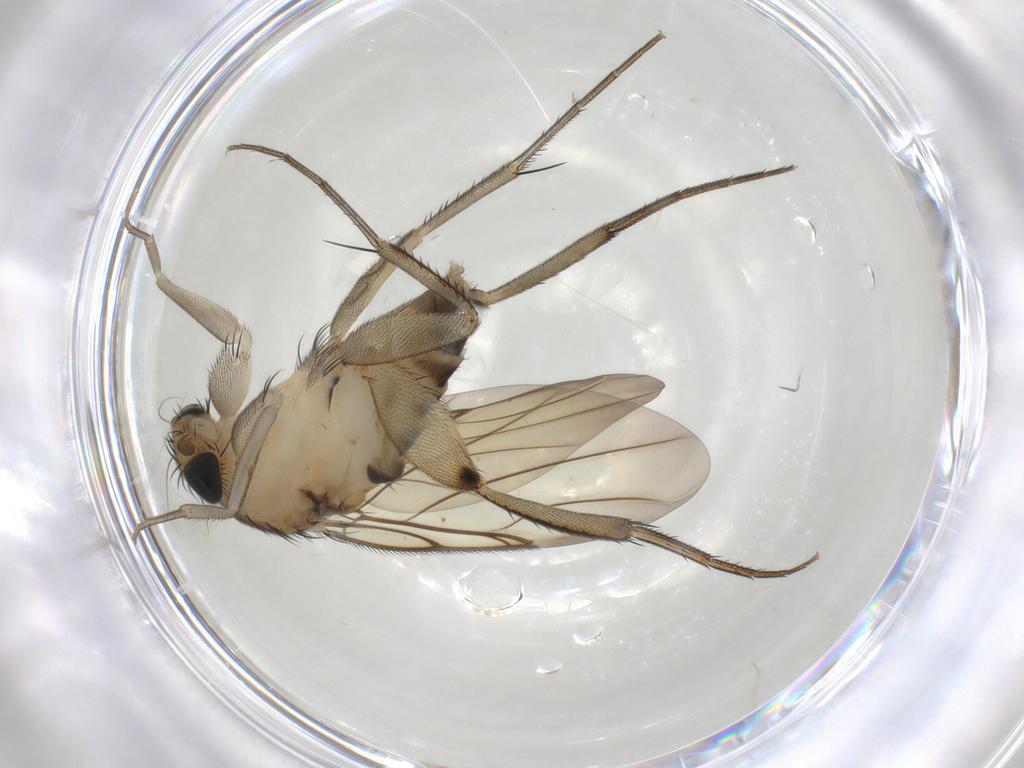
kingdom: Animalia
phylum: Arthropoda
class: Insecta
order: Diptera
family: Phoridae
